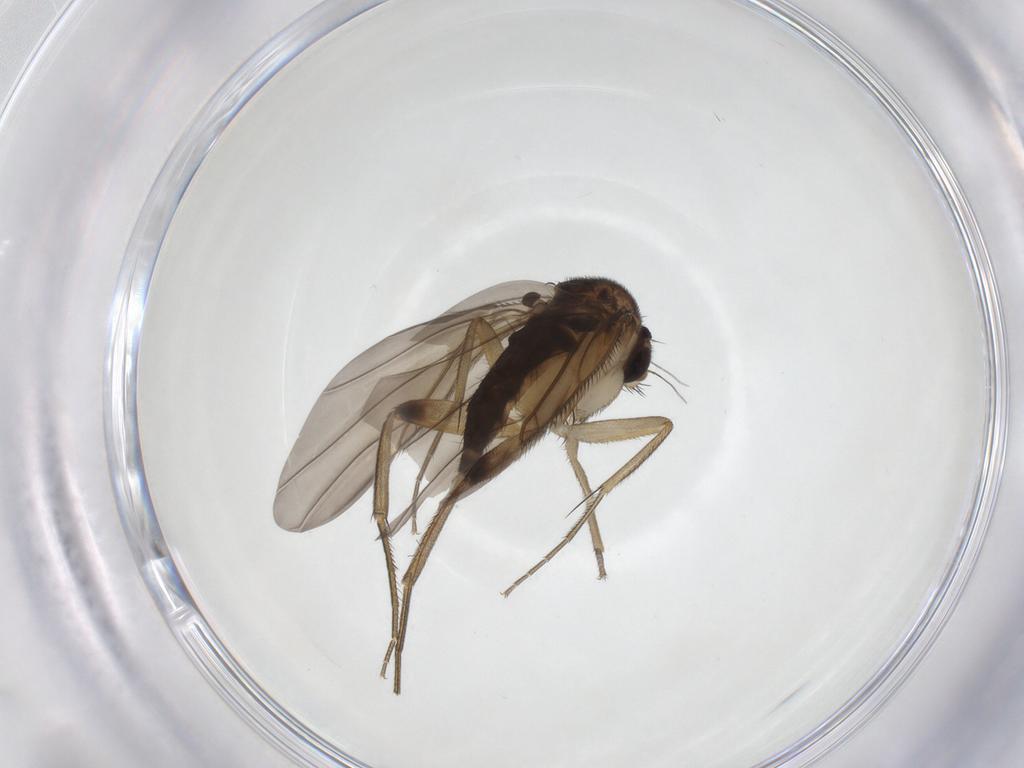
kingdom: Animalia
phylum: Arthropoda
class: Insecta
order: Diptera
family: Phoridae
